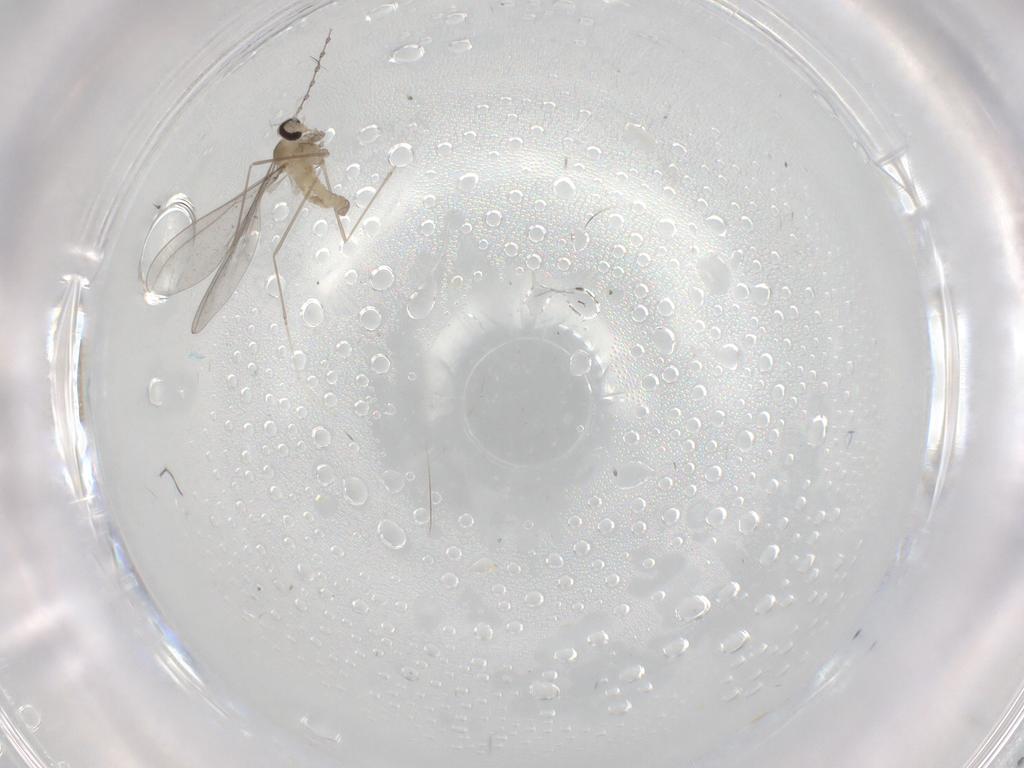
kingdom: Animalia
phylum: Arthropoda
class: Insecta
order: Diptera
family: Cecidomyiidae
